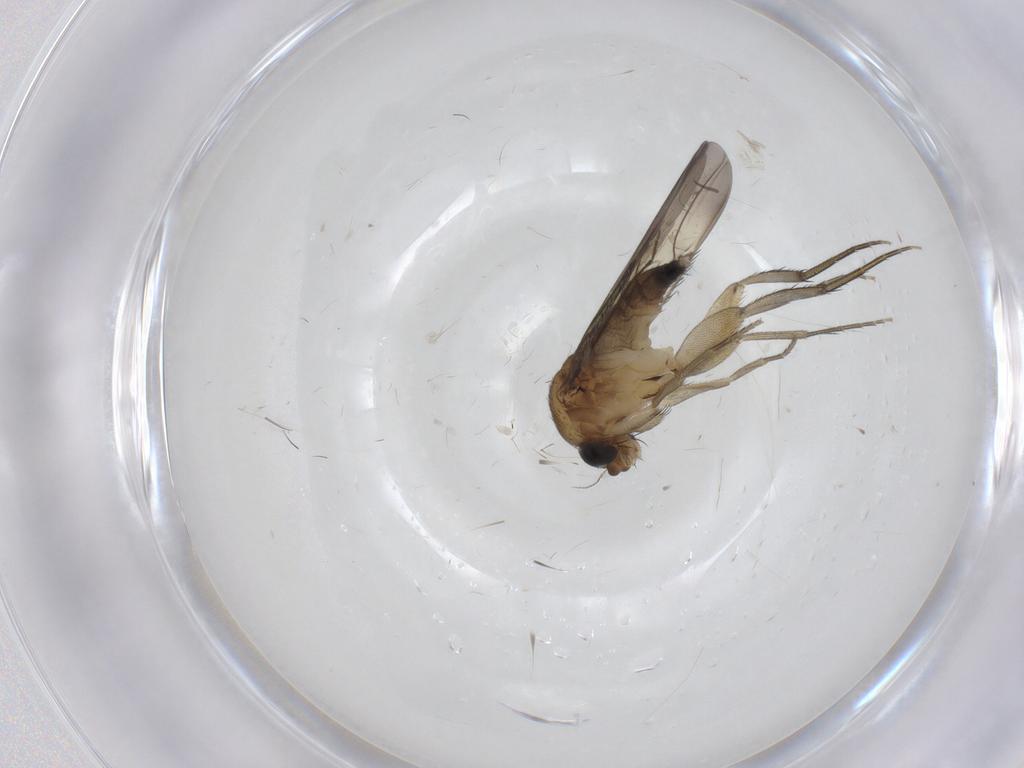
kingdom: Animalia
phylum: Arthropoda
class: Insecta
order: Diptera
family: Phoridae
